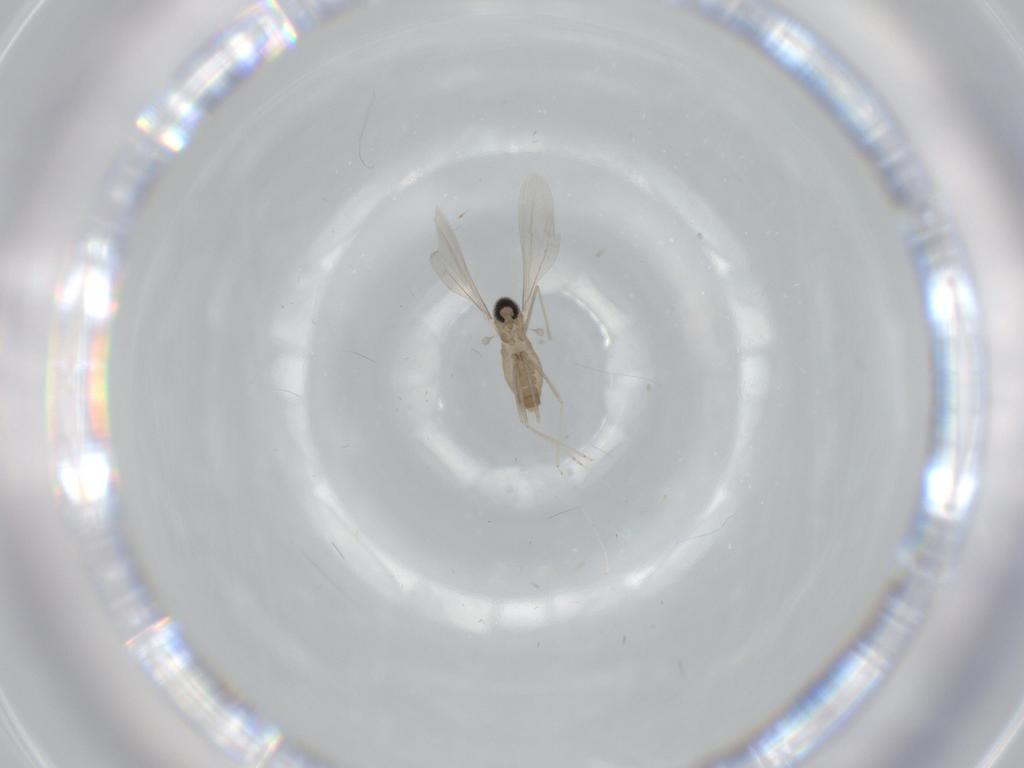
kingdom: Animalia
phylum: Arthropoda
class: Insecta
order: Diptera
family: Cecidomyiidae
